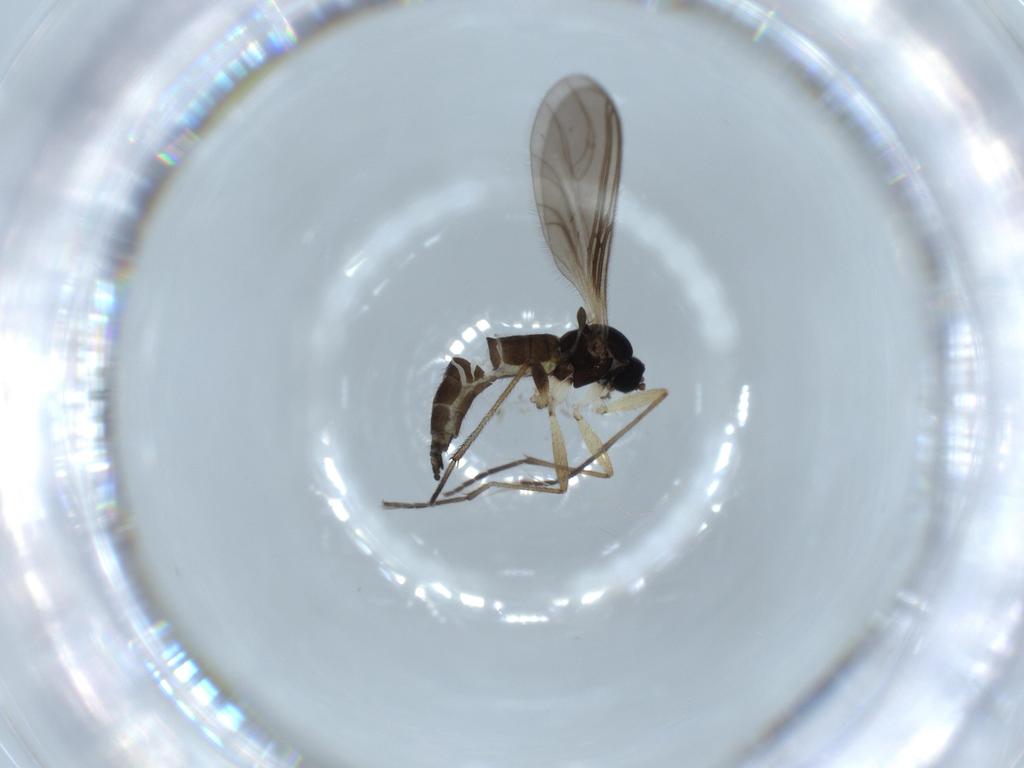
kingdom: Animalia
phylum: Arthropoda
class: Insecta
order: Diptera
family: Sciaridae
